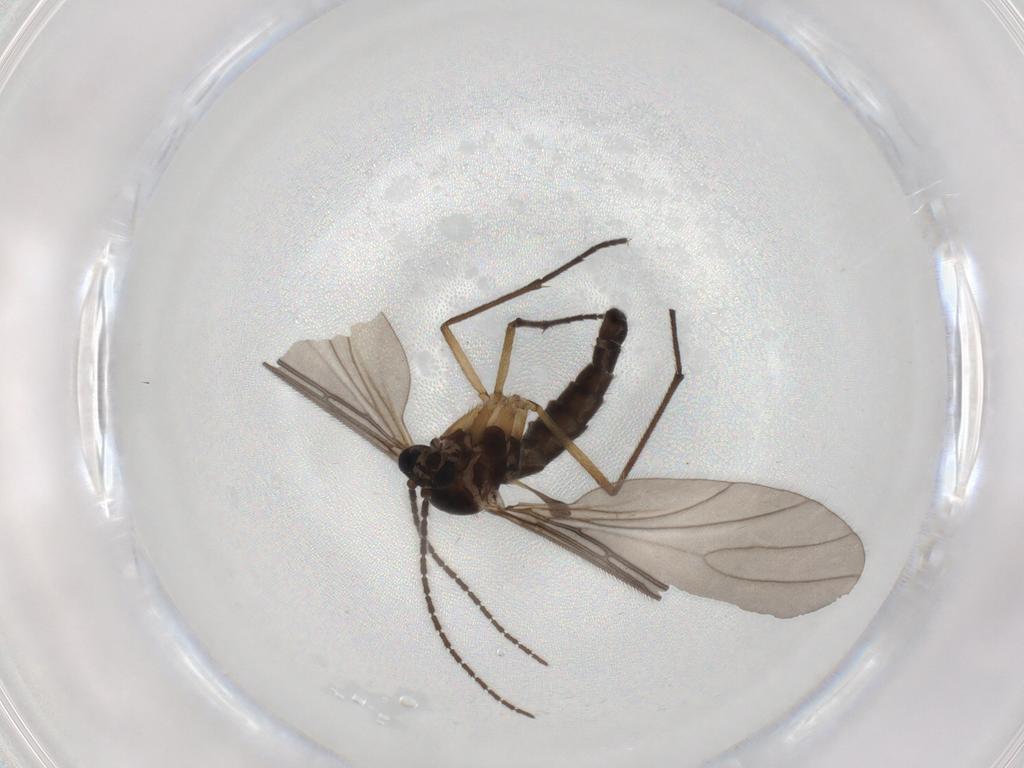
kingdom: Animalia
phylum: Arthropoda
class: Insecta
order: Diptera
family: Sciaridae
